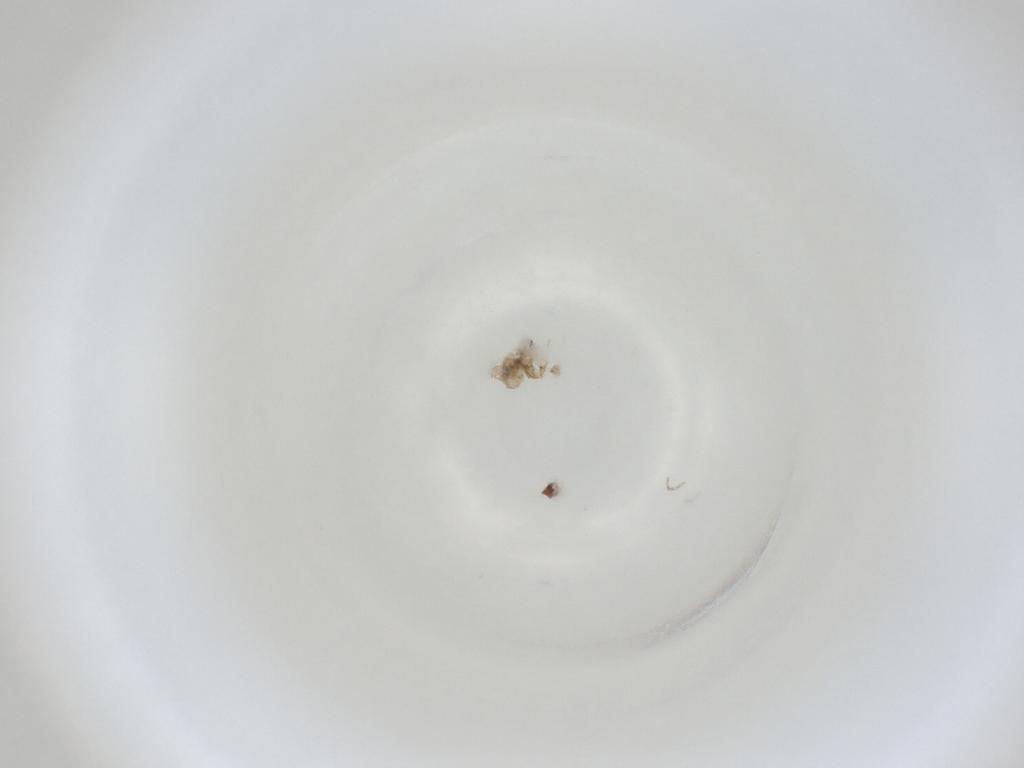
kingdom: Animalia
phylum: Arthropoda
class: Insecta
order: Diptera
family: Cecidomyiidae
